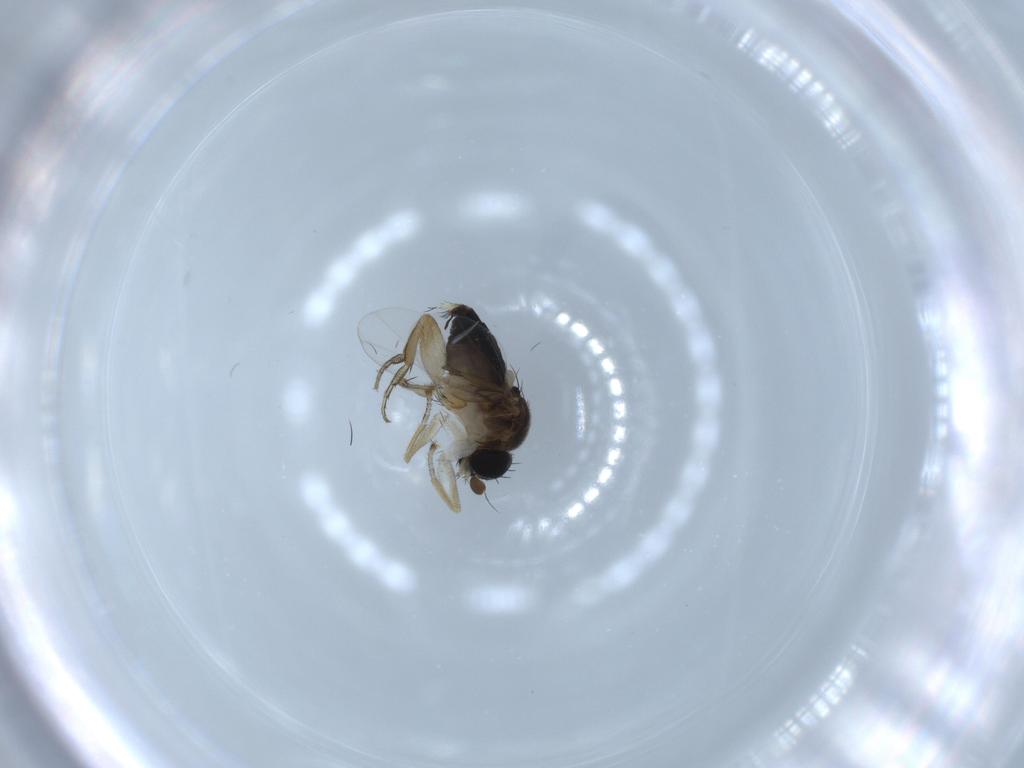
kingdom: Animalia
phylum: Arthropoda
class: Insecta
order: Diptera
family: Phoridae
